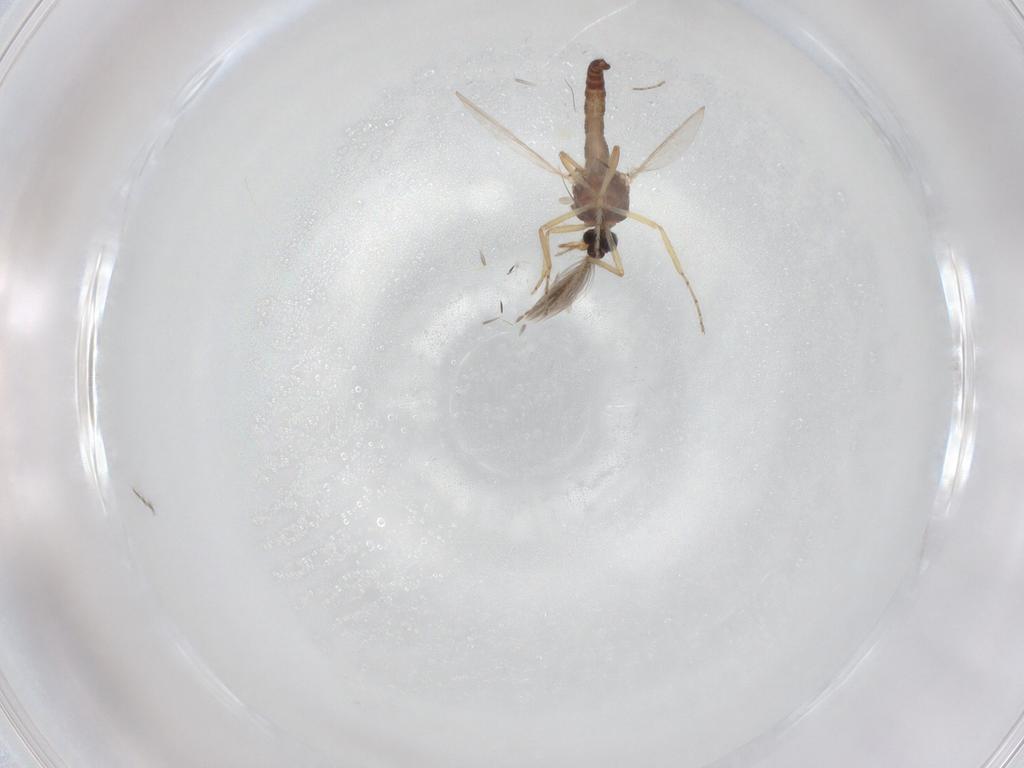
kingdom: Animalia
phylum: Arthropoda
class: Insecta
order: Diptera
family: Ceratopogonidae
